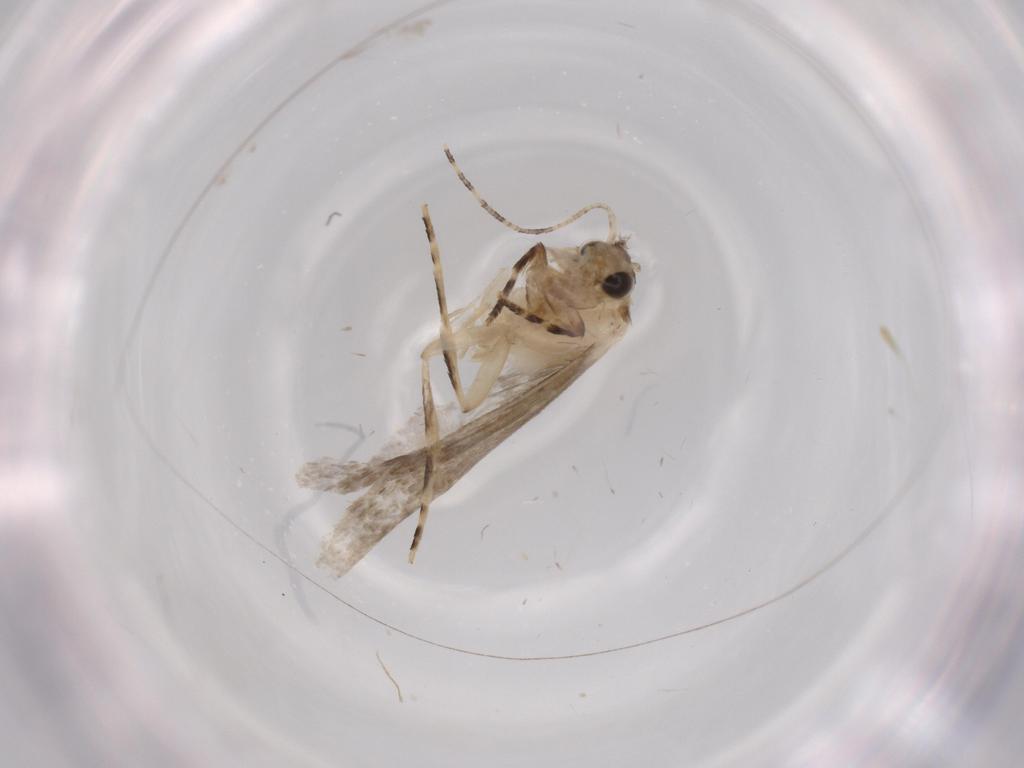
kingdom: Animalia
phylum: Arthropoda
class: Insecta
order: Lepidoptera
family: Tineidae
